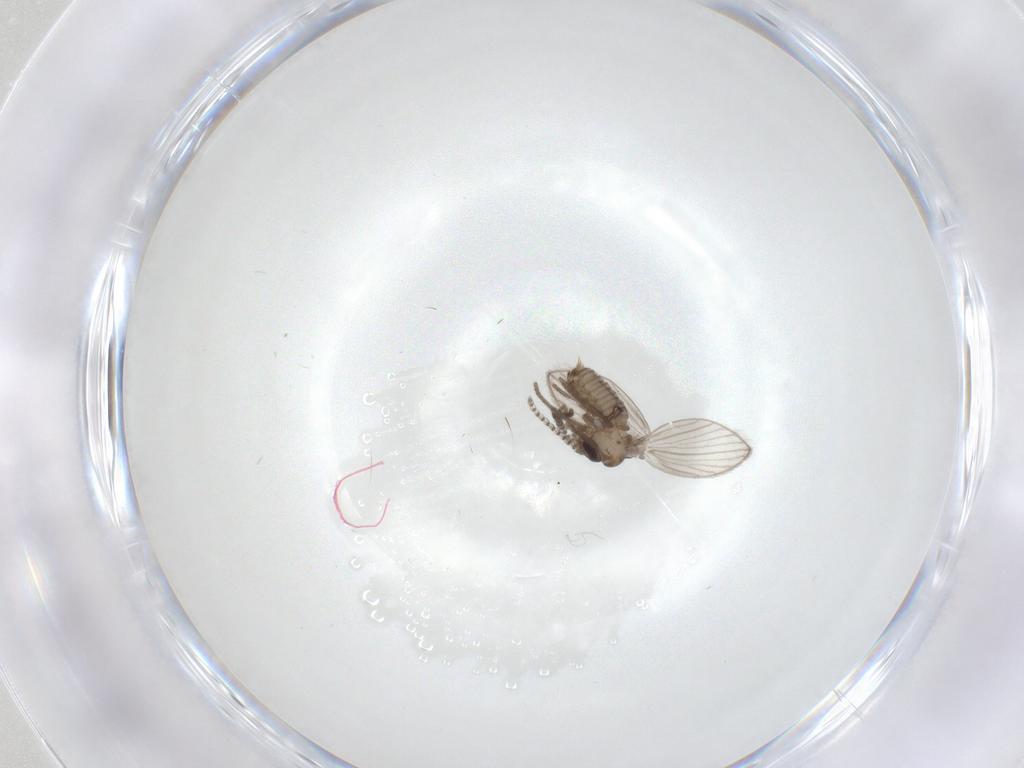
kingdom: Animalia
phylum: Arthropoda
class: Insecta
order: Diptera
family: Psychodidae
